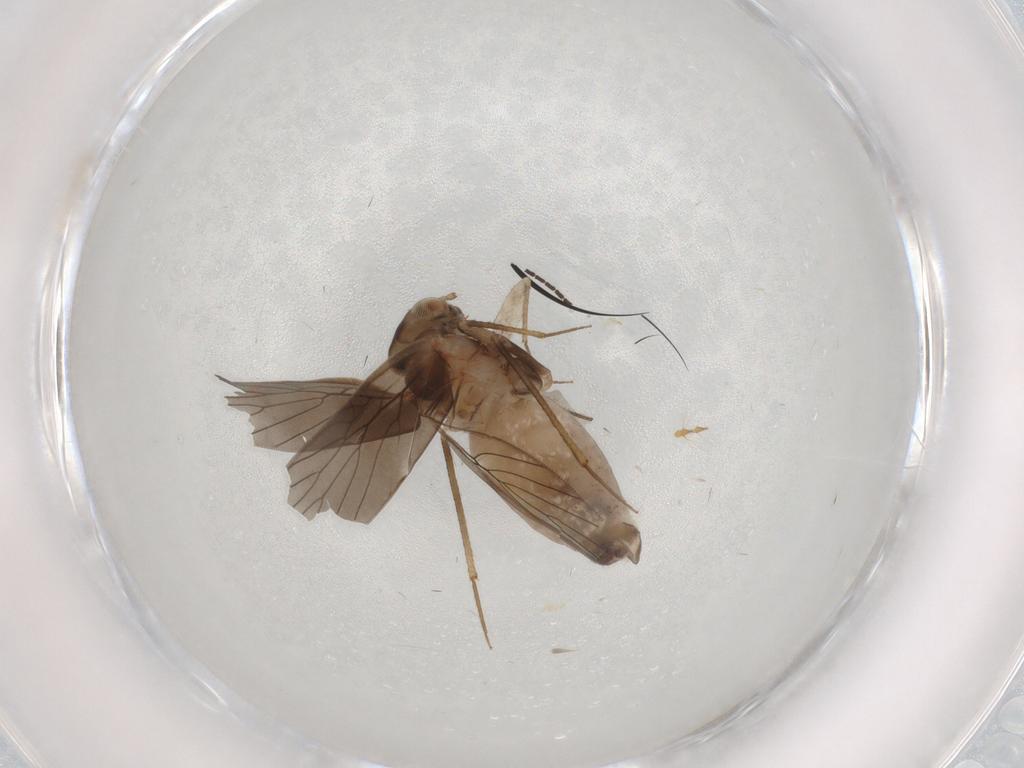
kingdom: Animalia
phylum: Arthropoda
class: Insecta
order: Psocodea
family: Lepidopsocidae
